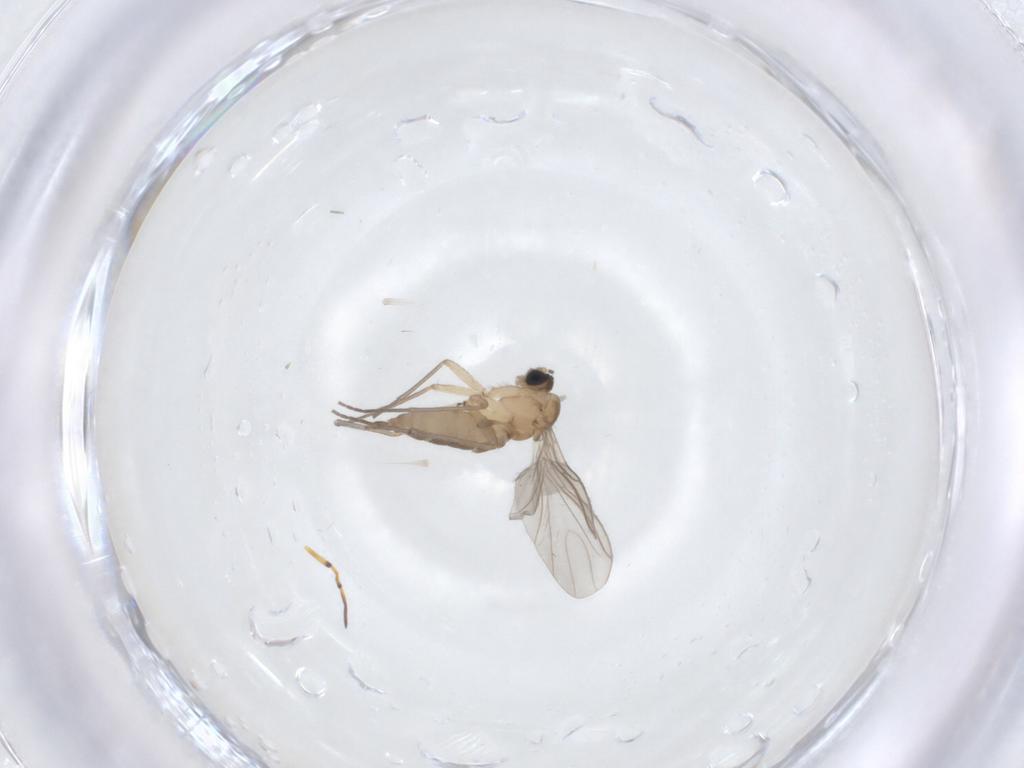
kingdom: Animalia
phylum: Arthropoda
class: Insecta
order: Diptera
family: Sciaridae
